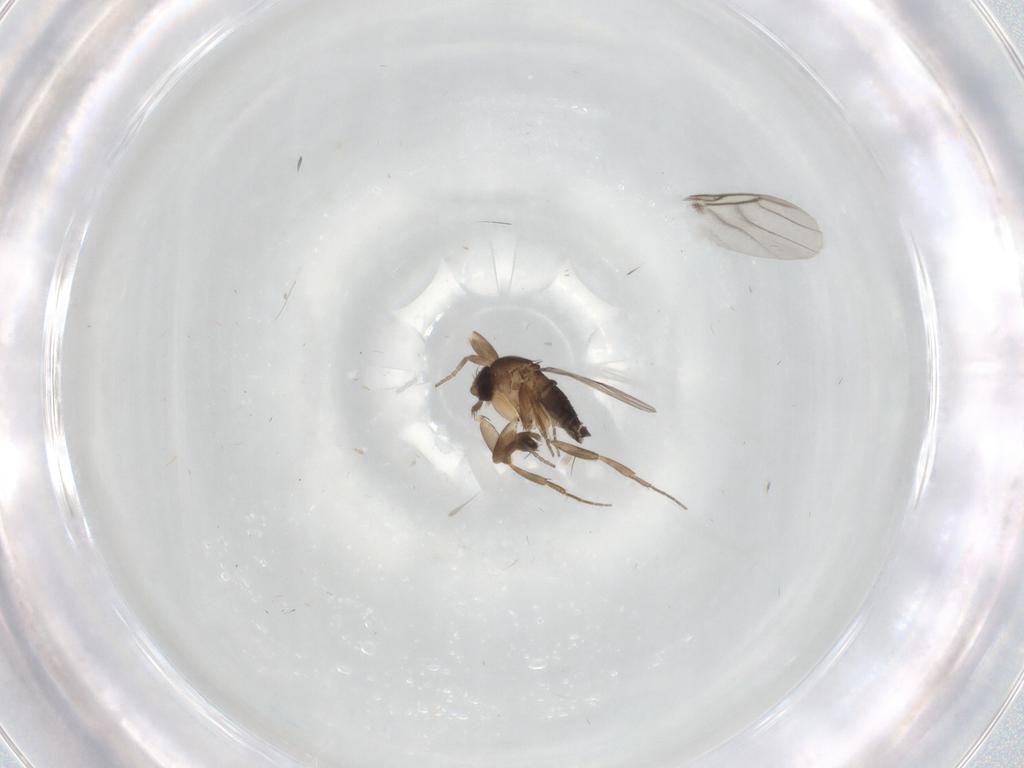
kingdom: Animalia
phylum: Arthropoda
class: Insecta
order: Diptera
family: Phoridae
